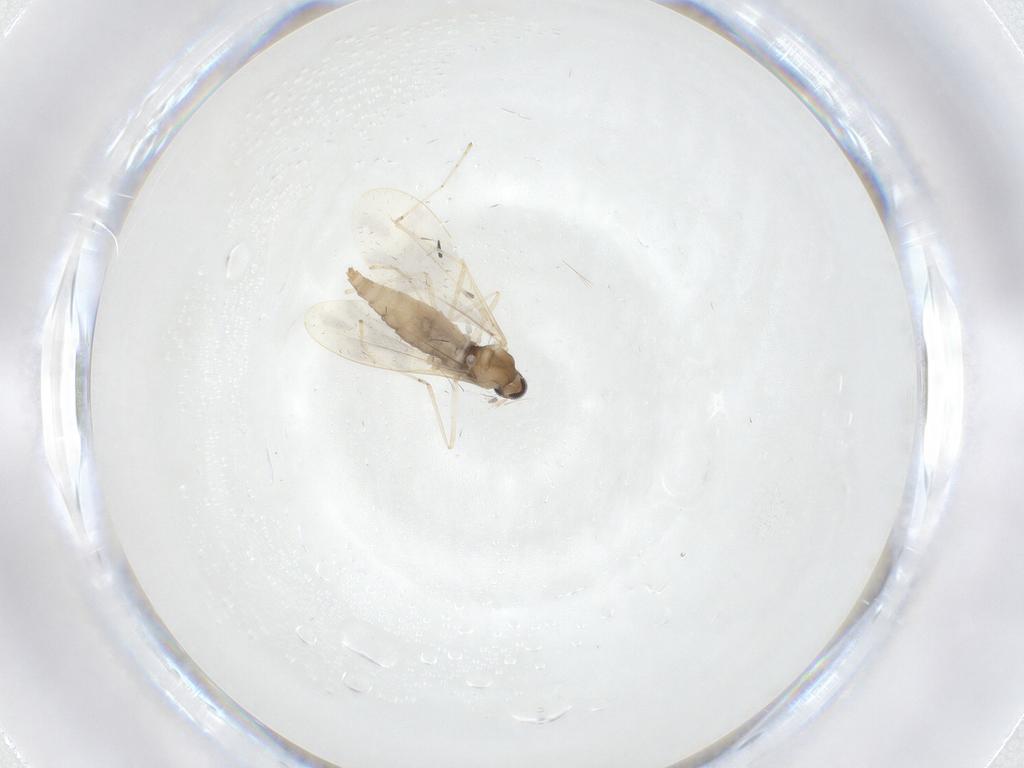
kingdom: Animalia
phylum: Arthropoda
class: Insecta
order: Diptera
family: Cecidomyiidae
